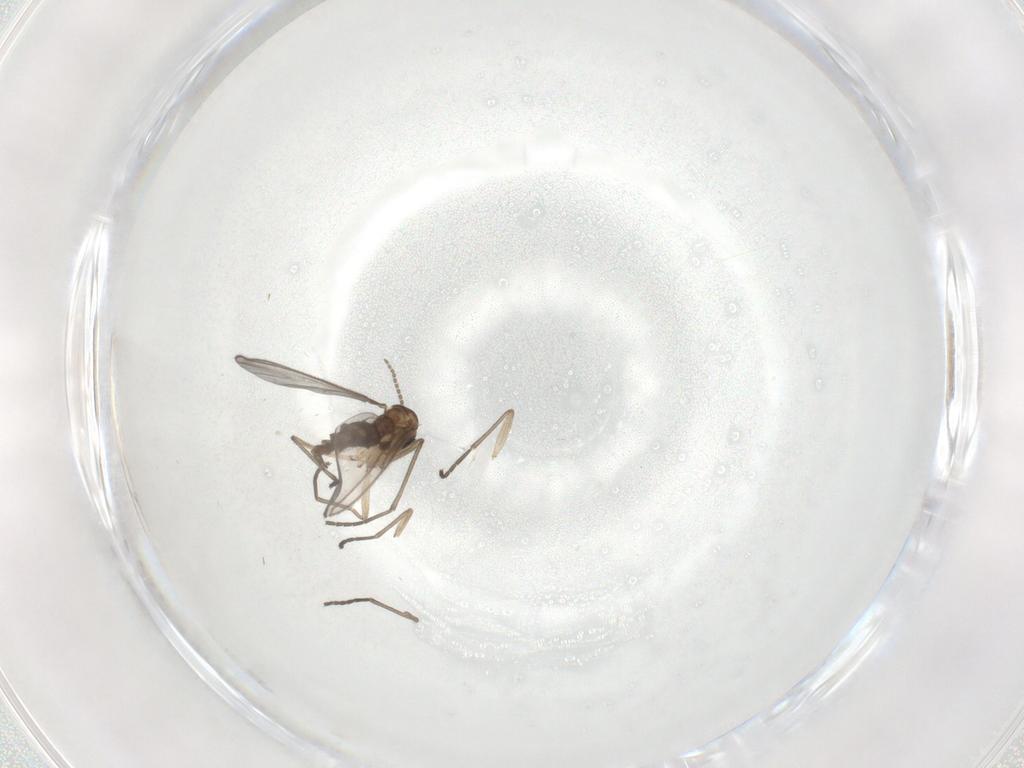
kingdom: Animalia
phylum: Arthropoda
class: Insecta
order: Diptera
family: Sciaridae
